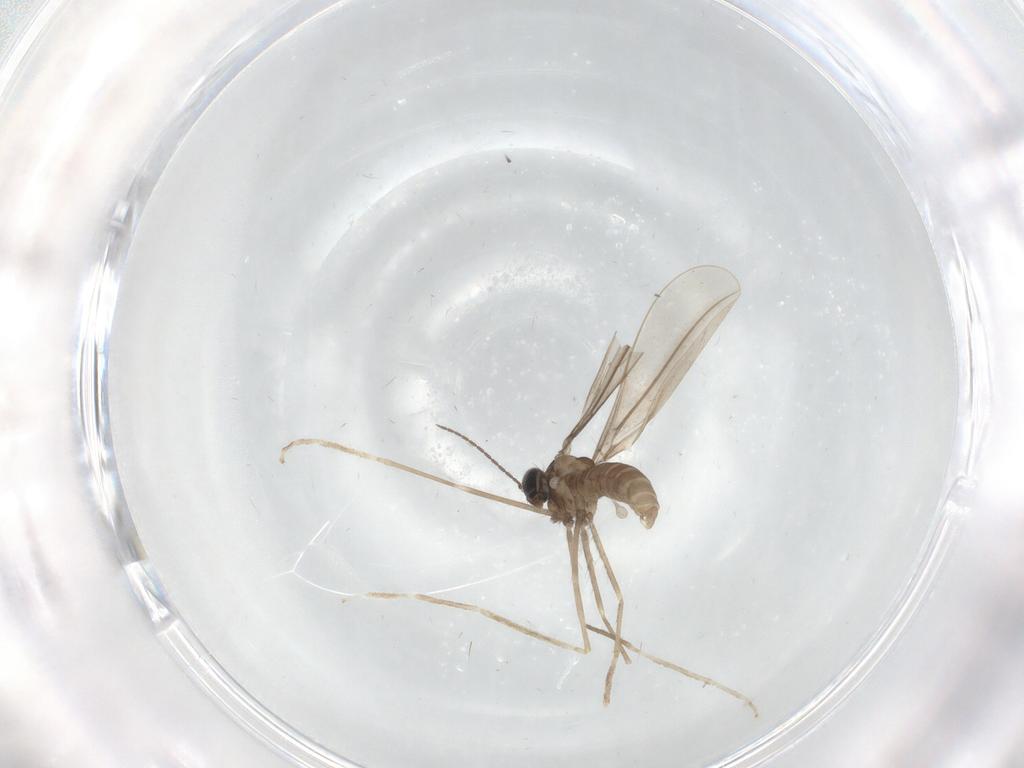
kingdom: Animalia
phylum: Arthropoda
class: Insecta
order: Diptera
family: Cecidomyiidae
